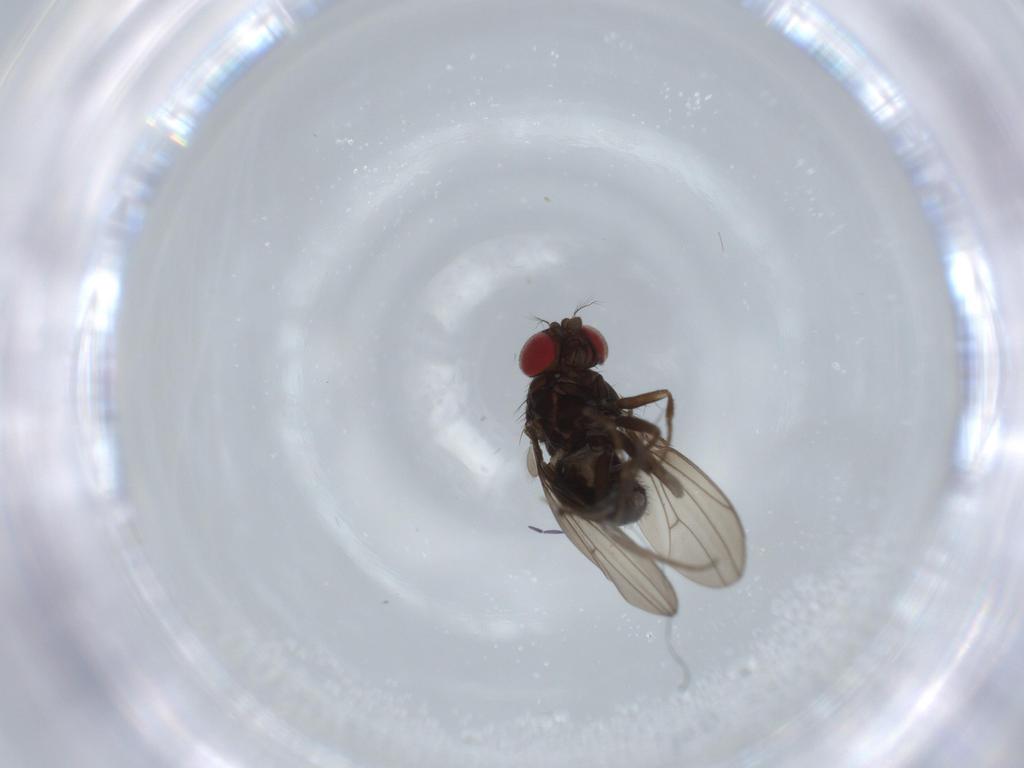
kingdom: Animalia
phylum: Arthropoda
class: Insecta
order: Diptera
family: Drosophilidae
